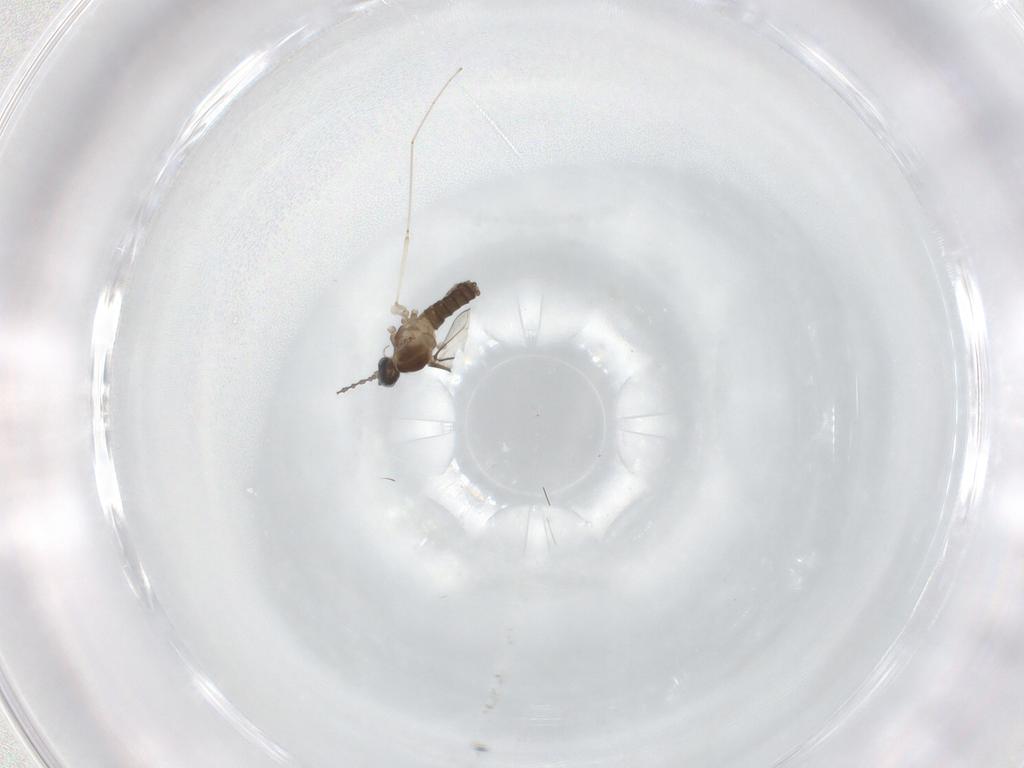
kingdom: Animalia
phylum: Arthropoda
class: Insecta
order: Diptera
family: Cecidomyiidae
